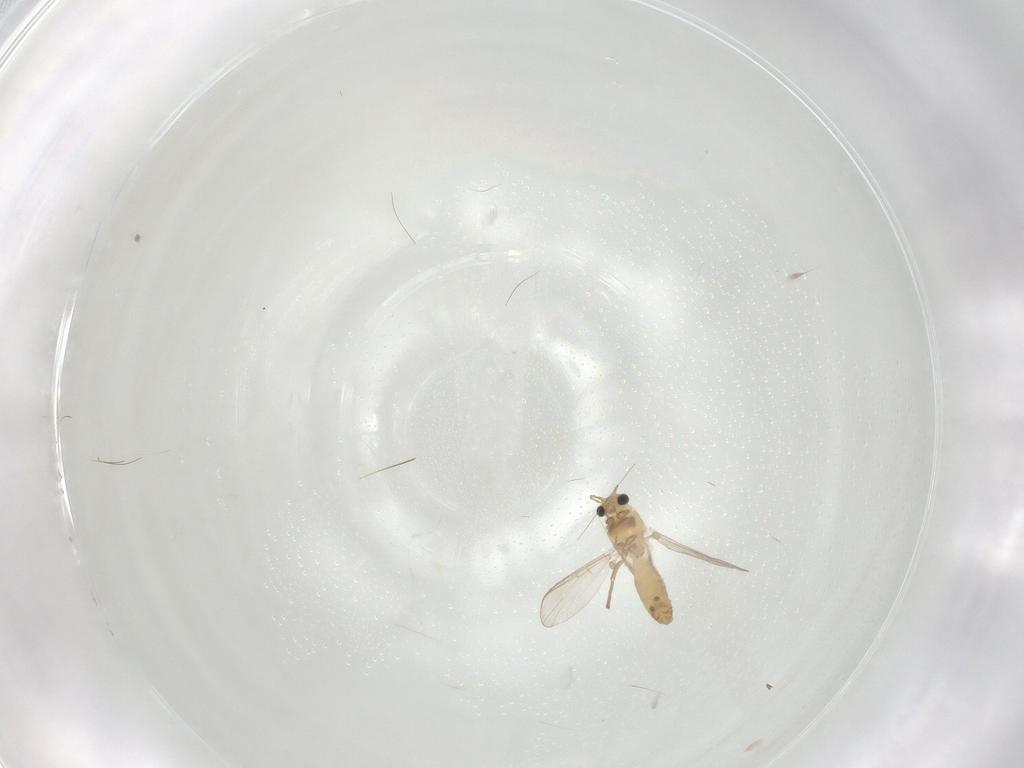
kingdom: Animalia
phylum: Arthropoda
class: Insecta
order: Diptera
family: Chironomidae
